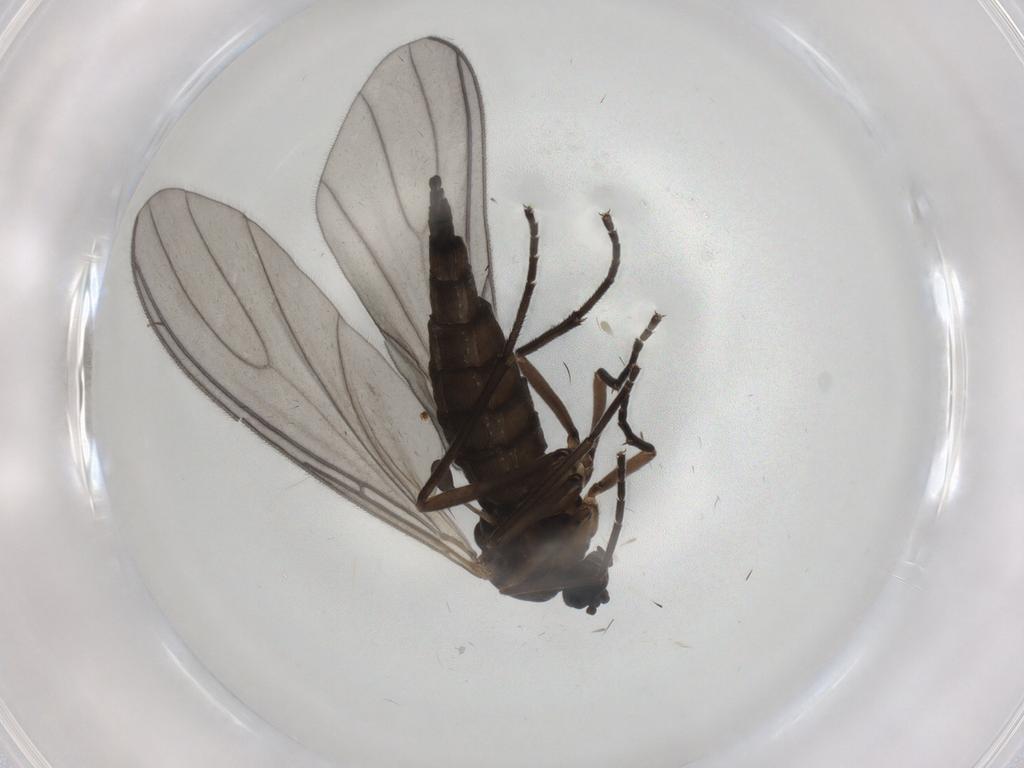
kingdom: Animalia
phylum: Arthropoda
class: Insecta
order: Diptera
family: Sciaridae
